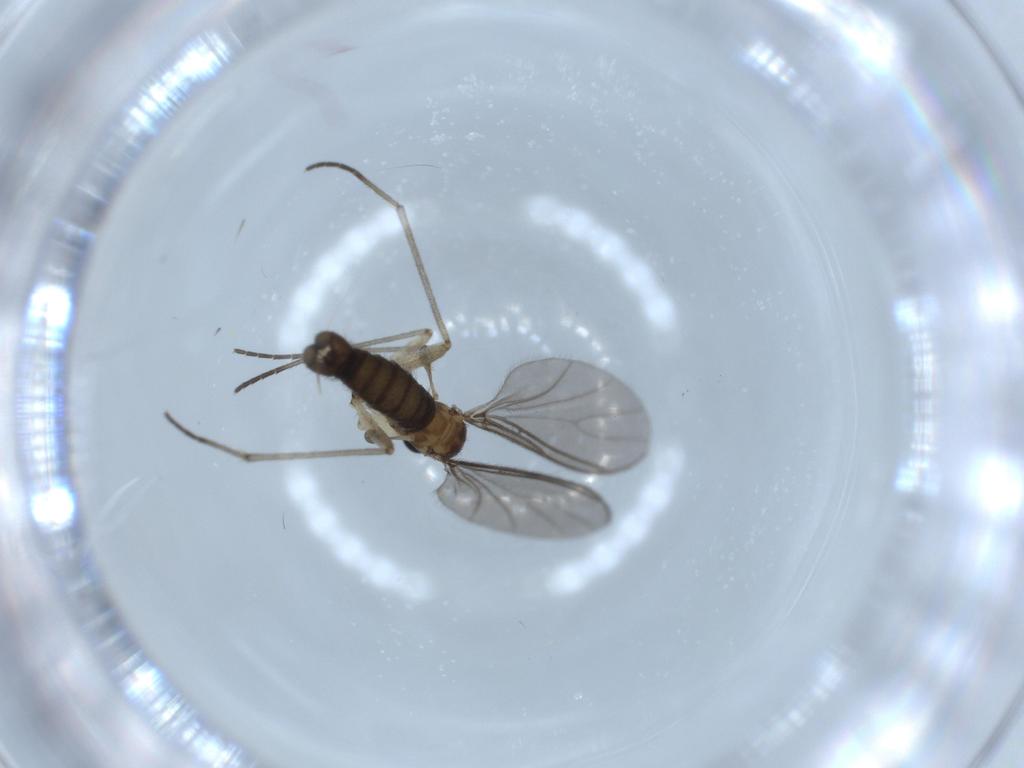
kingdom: Animalia
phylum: Arthropoda
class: Insecta
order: Diptera
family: Sciaridae
